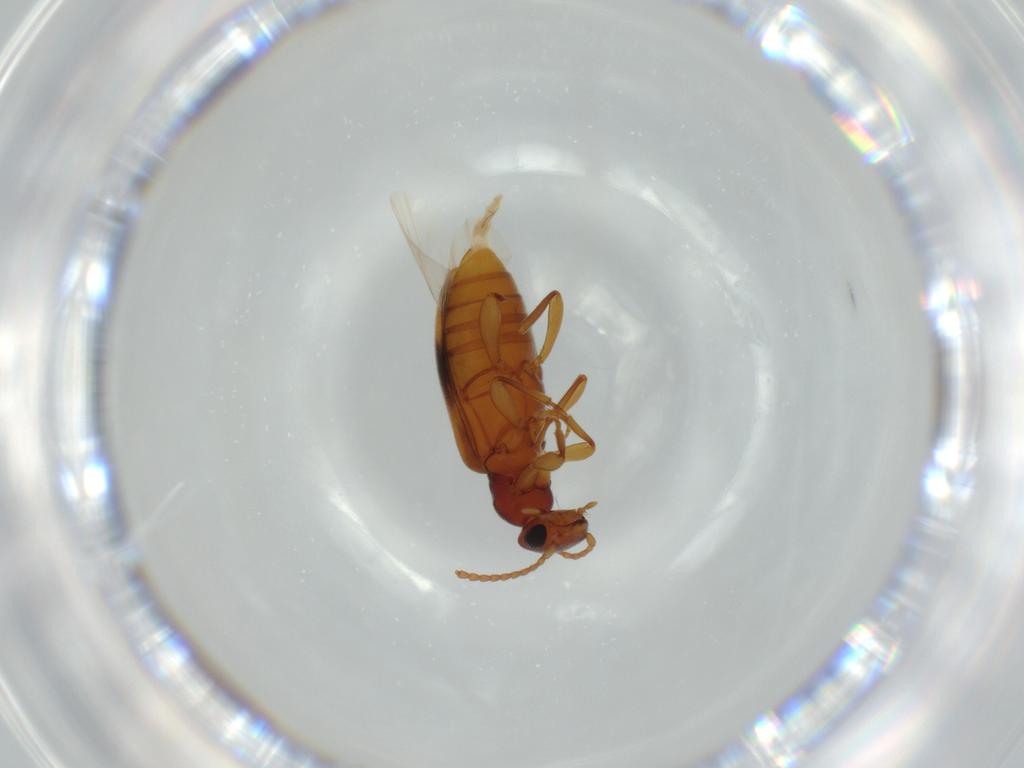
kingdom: Animalia
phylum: Arthropoda
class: Insecta
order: Coleoptera
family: Anthicidae
